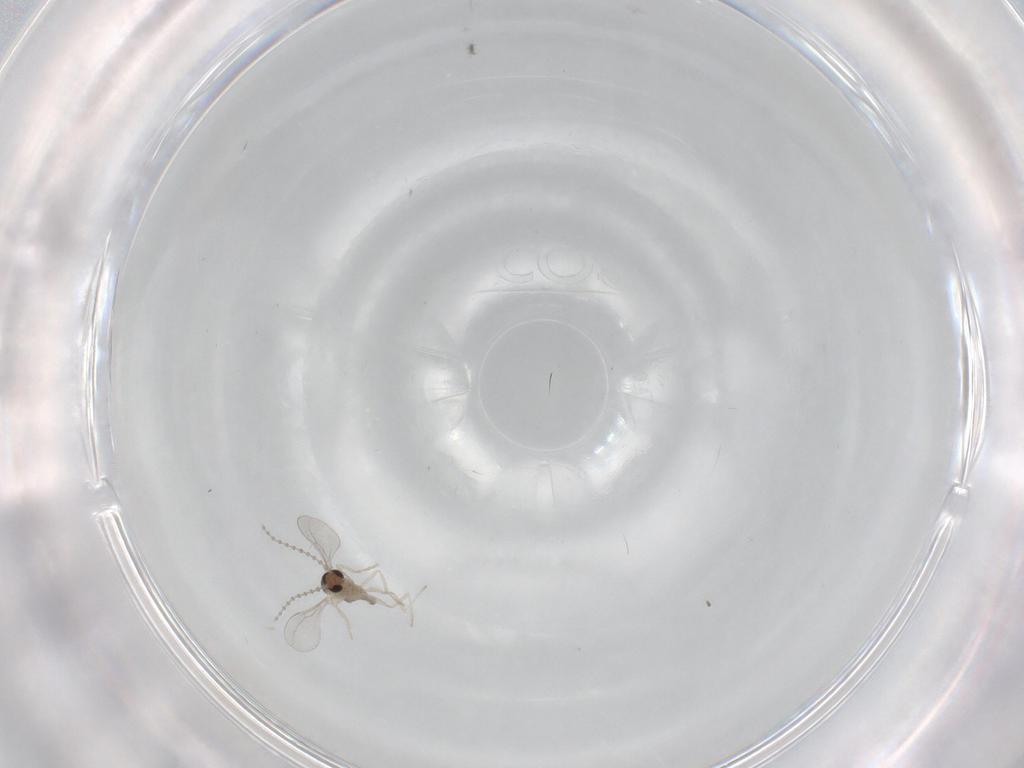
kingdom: Animalia
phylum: Arthropoda
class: Insecta
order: Diptera
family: Cecidomyiidae
